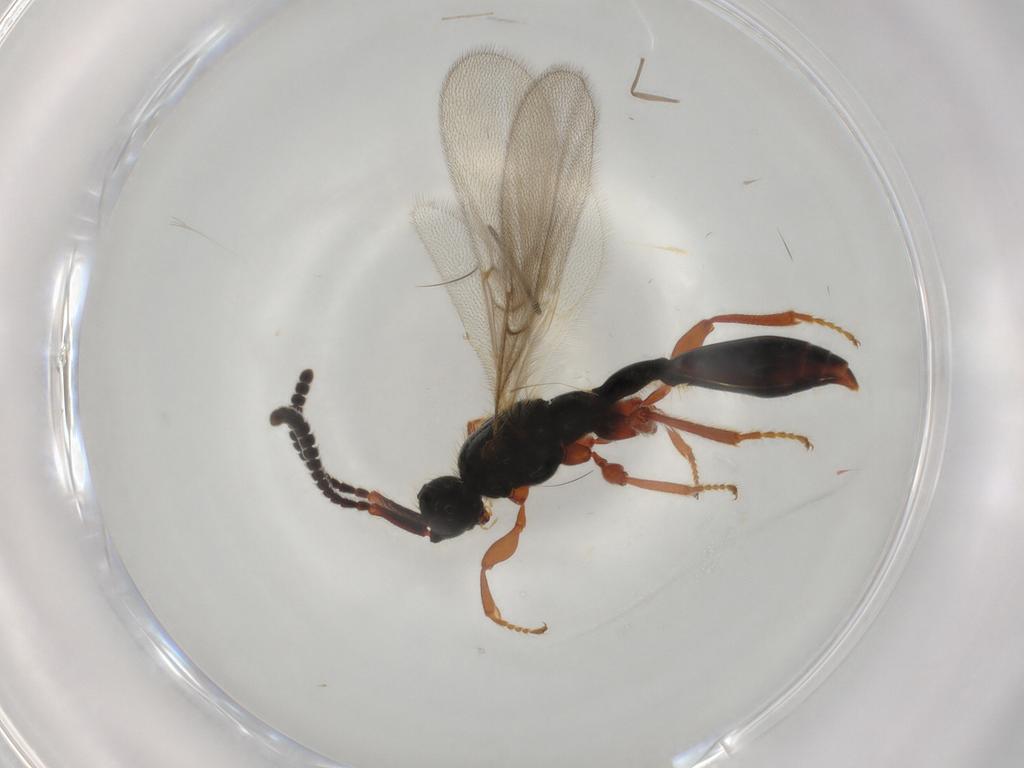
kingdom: Animalia
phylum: Arthropoda
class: Insecta
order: Hymenoptera
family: Diapriidae
